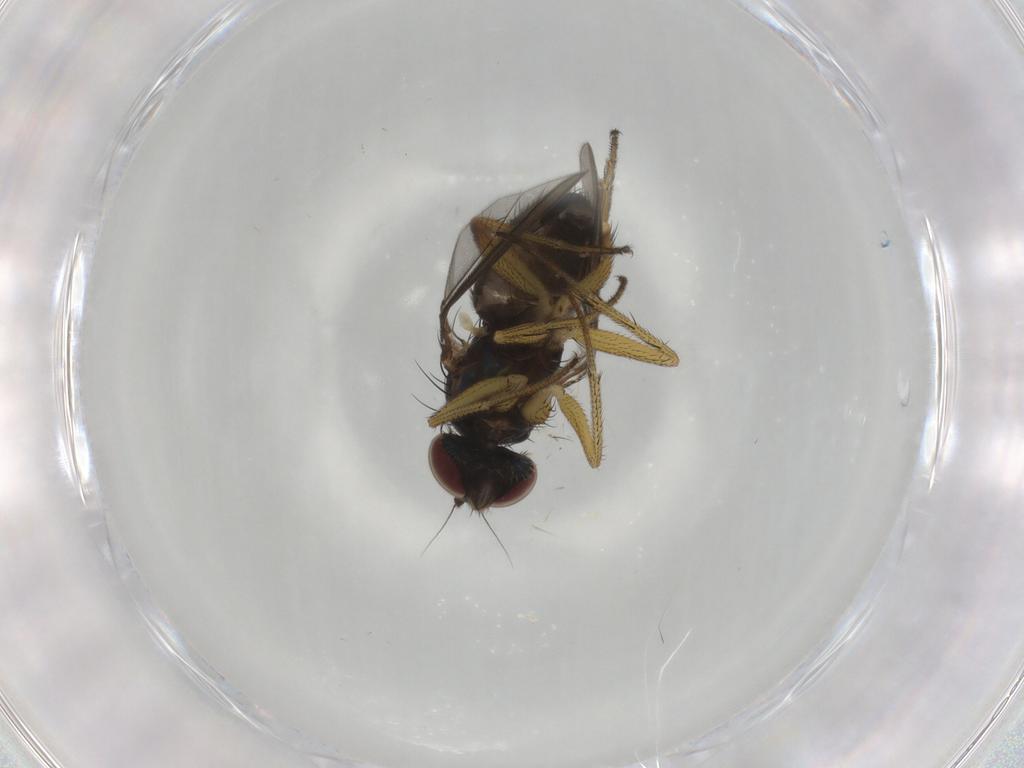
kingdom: Animalia
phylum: Arthropoda
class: Insecta
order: Diptera
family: Dolichopodidae
